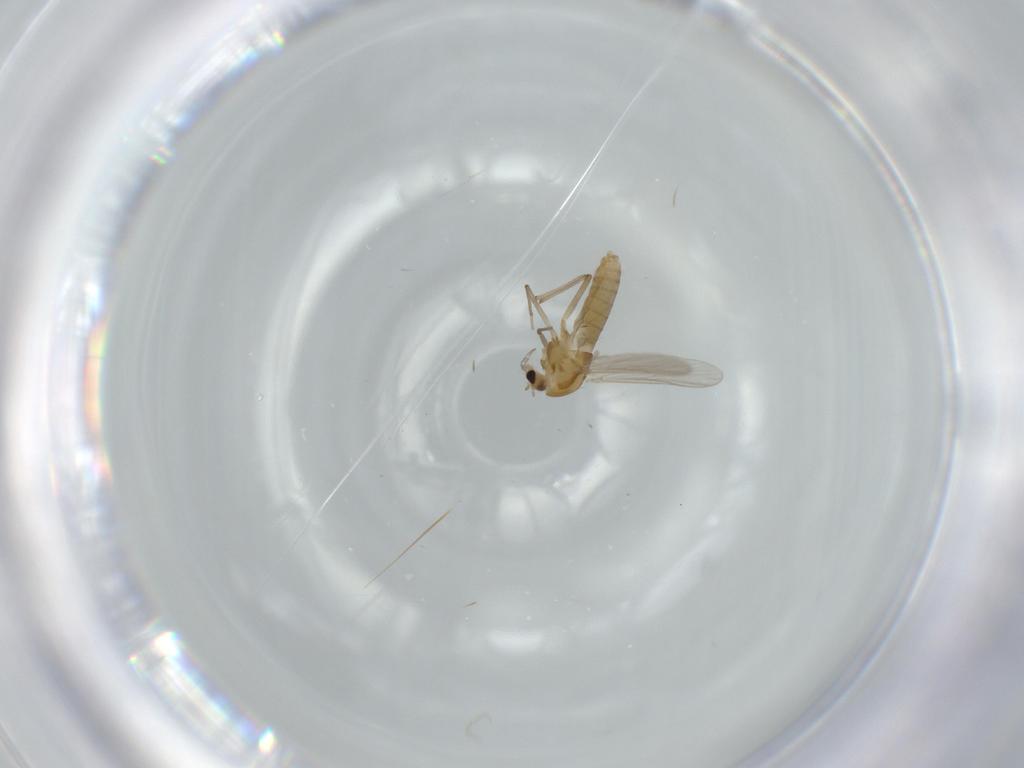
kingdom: Animalia
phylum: Arthropoda
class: Insecta
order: Diptera
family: Chironomidae
